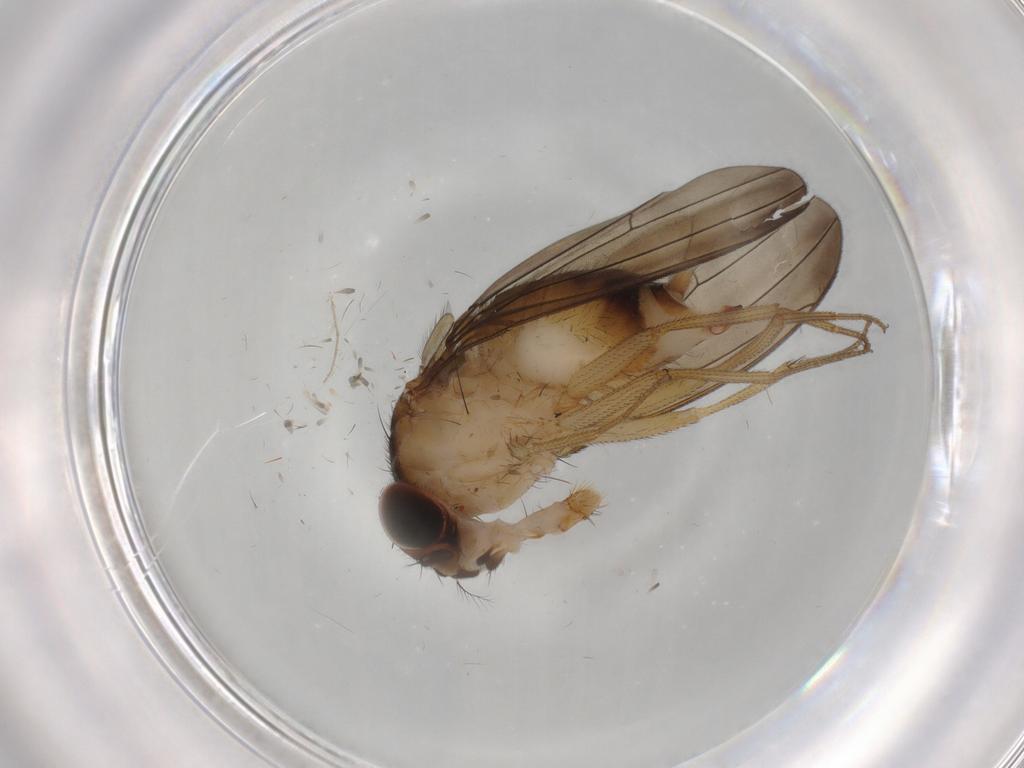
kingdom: Animalia
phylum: Arthropoda
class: Insecta
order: Diptera
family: Drosophilidae
